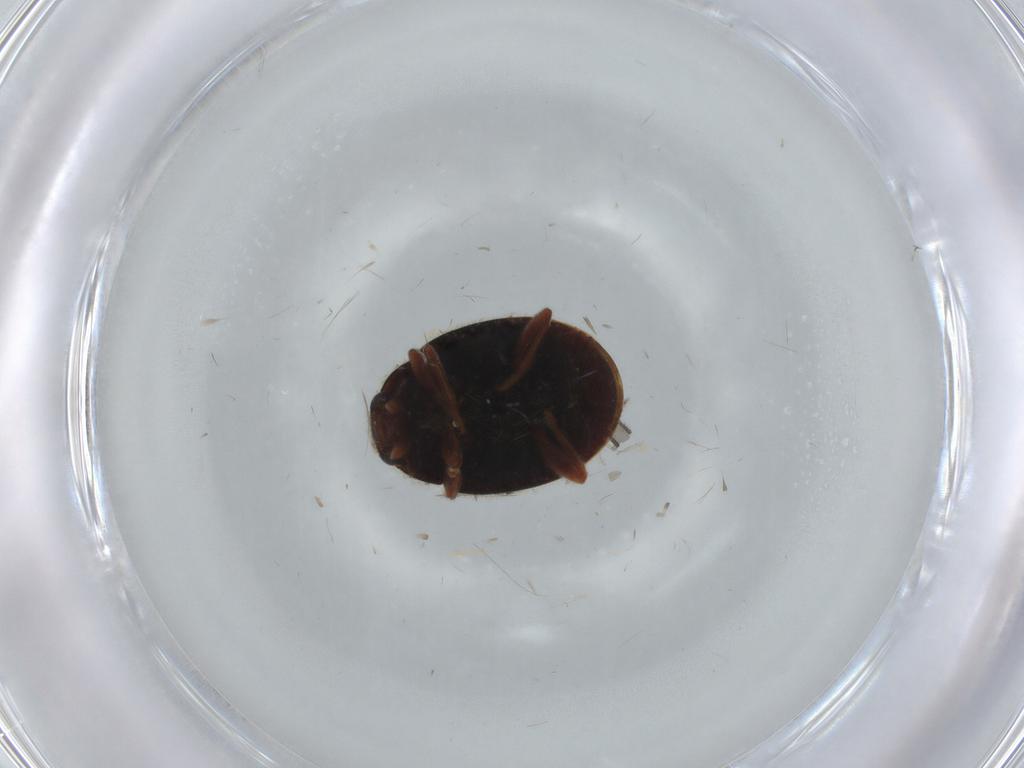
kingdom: Animalia
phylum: Arthropoda
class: Insecta
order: Coleoptera
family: Coccinellidae
